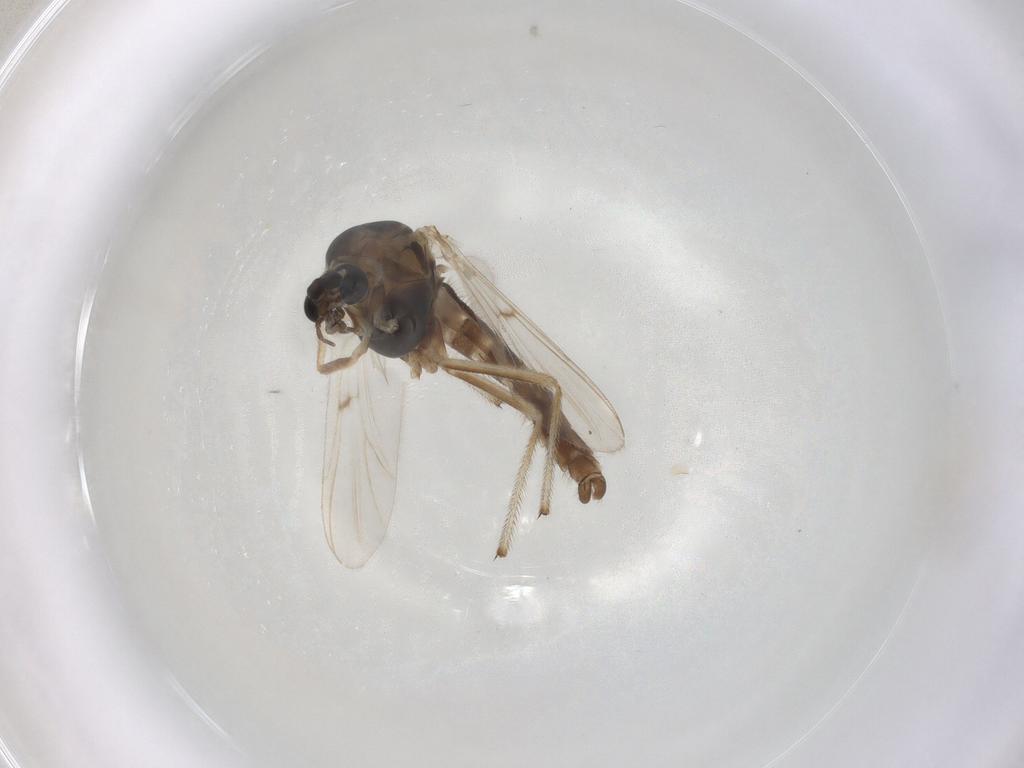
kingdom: Animalia
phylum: Arthropoda
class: Insecta
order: Diptera
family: Chironomidae
